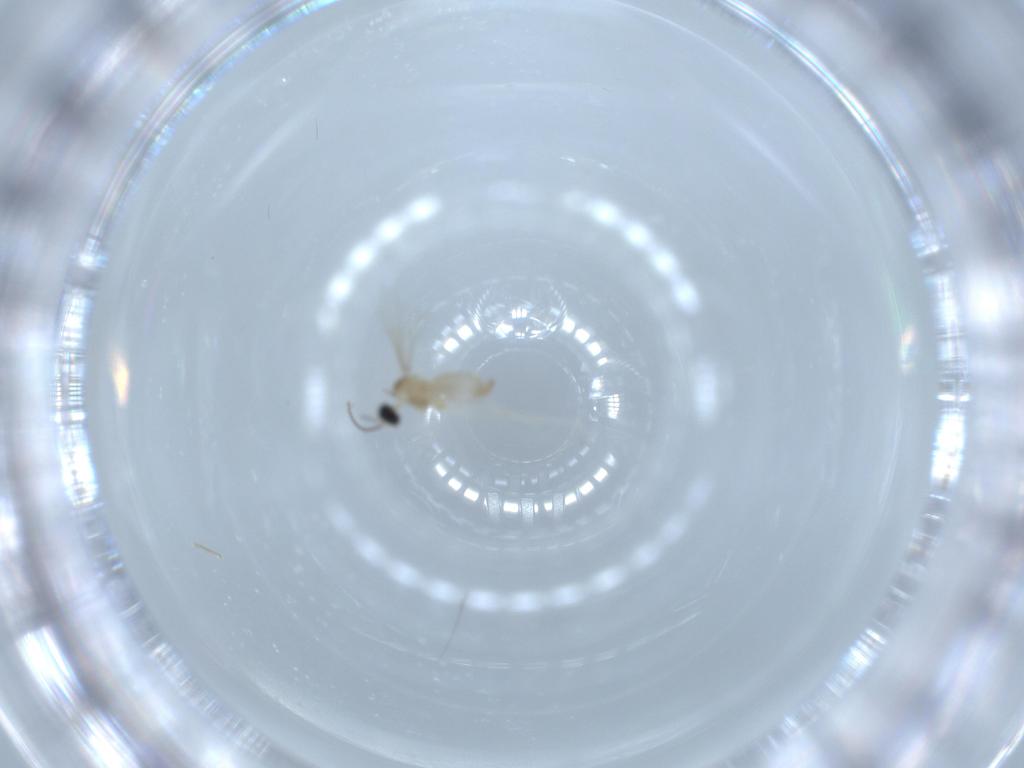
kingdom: Animalia
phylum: Arthropoda
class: Insecta
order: Diptera
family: Cecidomyiidae
